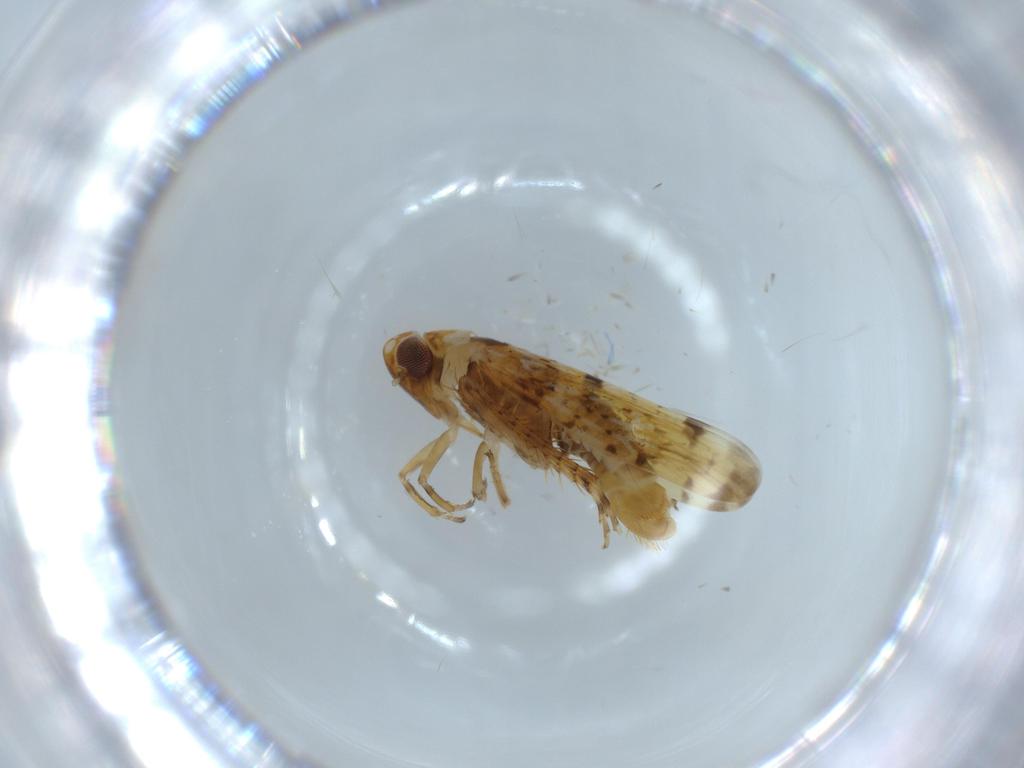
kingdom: Animalia
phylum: Arthropoda
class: Insecta
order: Hemiptera
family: Cicadellidae
